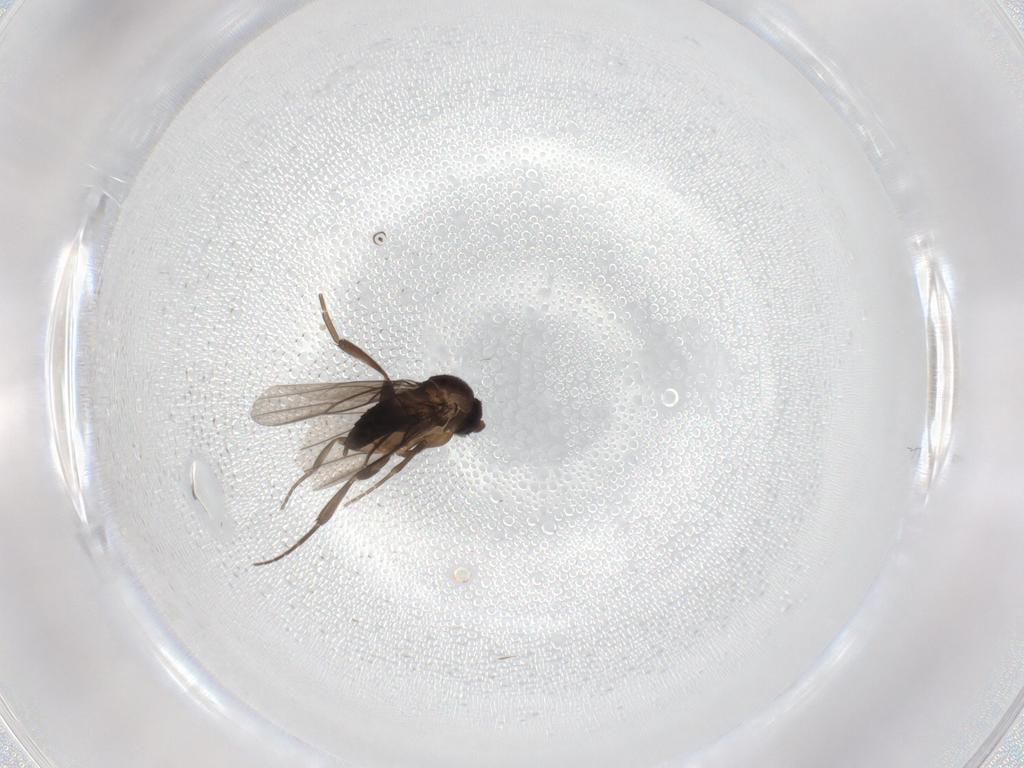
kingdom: Animalia
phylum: Arthropoda
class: Insecta
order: Diptera
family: Phoridae
